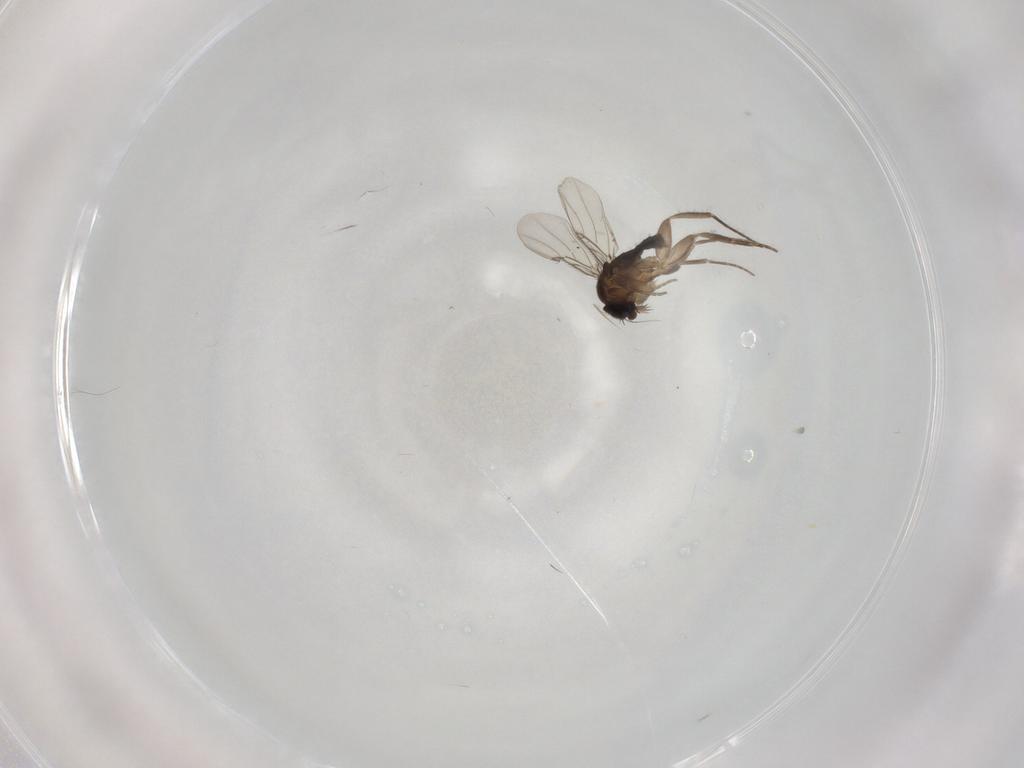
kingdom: Animalia
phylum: Arthropoda
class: Insecta
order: Diptera
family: Phoridae
